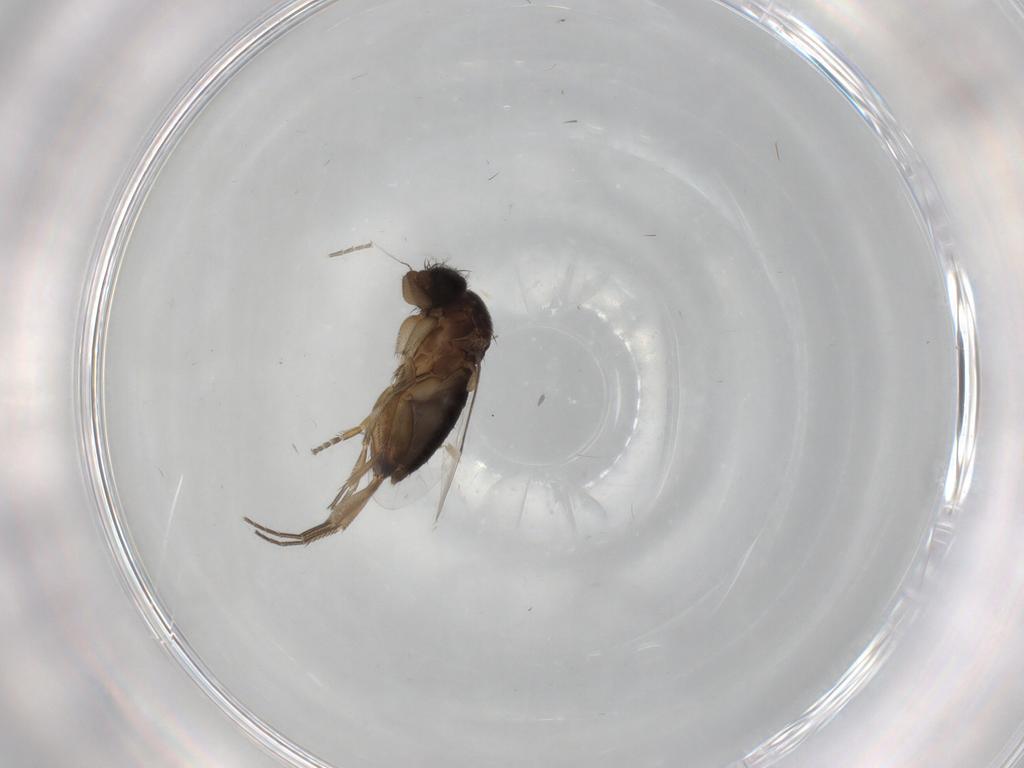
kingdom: Animalia
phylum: Arthropoda
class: Insecta
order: Diptera
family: Phoridae
